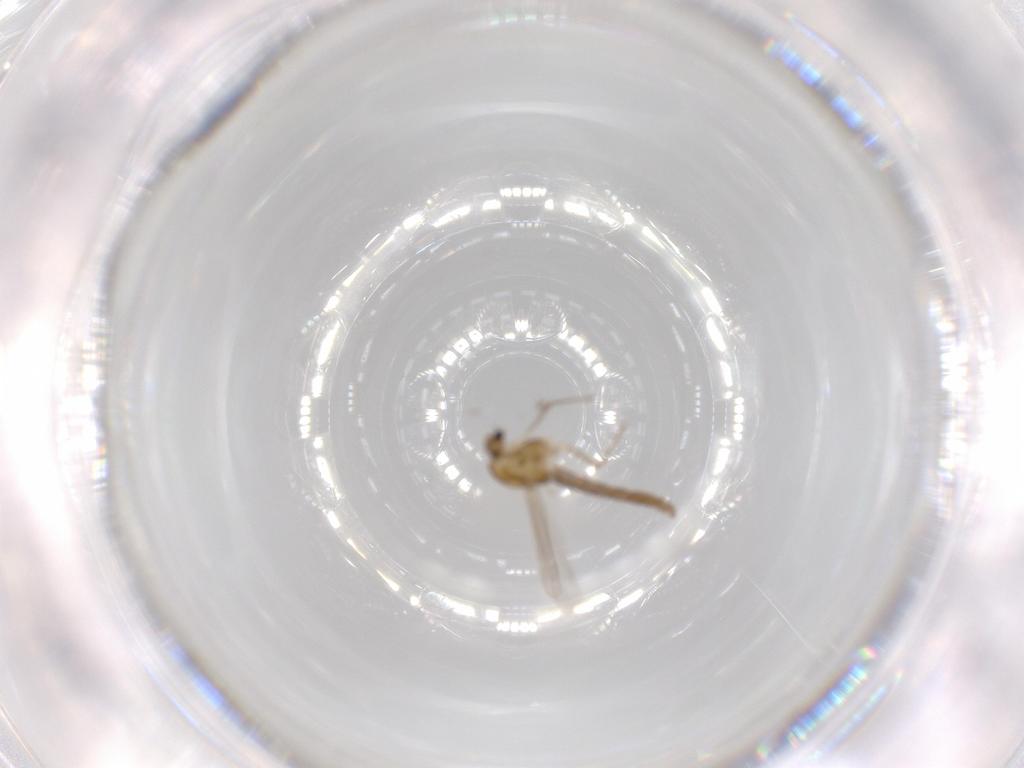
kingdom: Animalia
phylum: Arthropoda
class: Insecta
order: Diptera
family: Chironomidae
